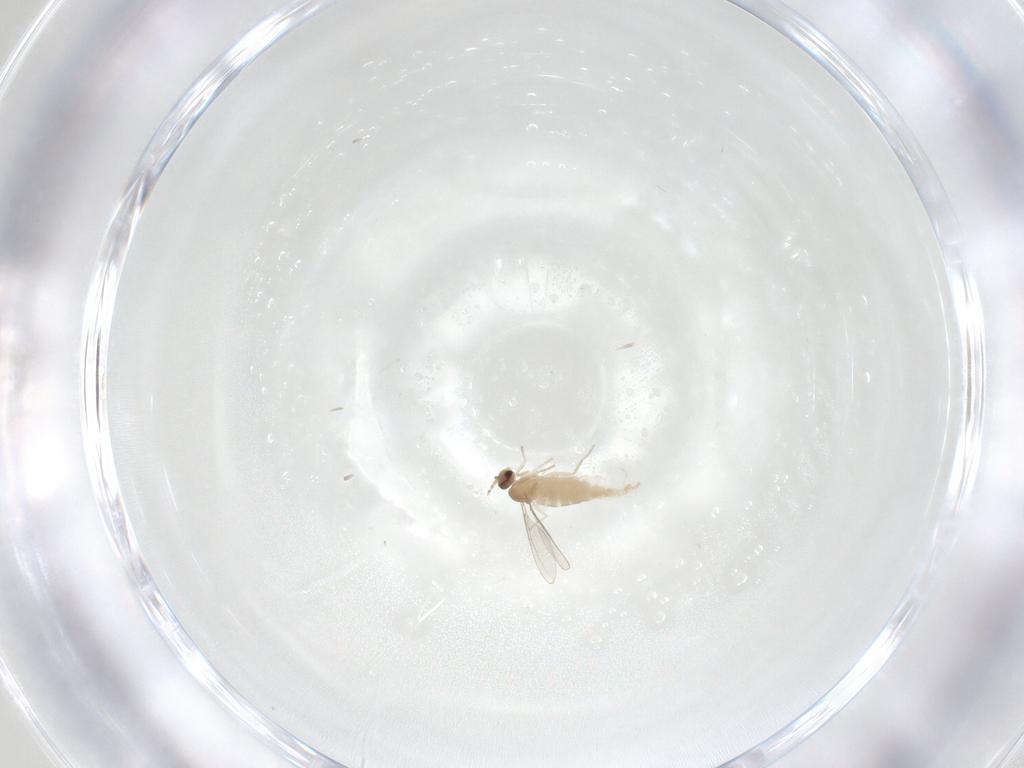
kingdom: Animalia
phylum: Arthropoda
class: Insecta
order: Diptera
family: Cecidomyiidae
